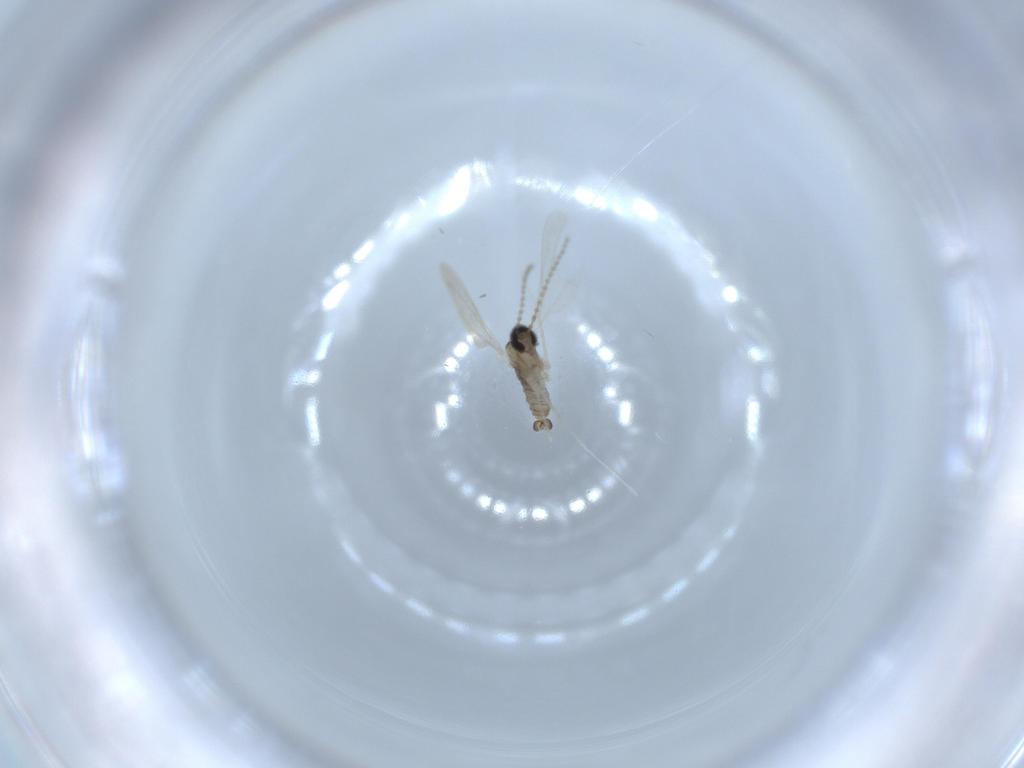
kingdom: Animalia
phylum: Arthropoda
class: Insecta
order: Diptera
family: Cecidomyiidae
